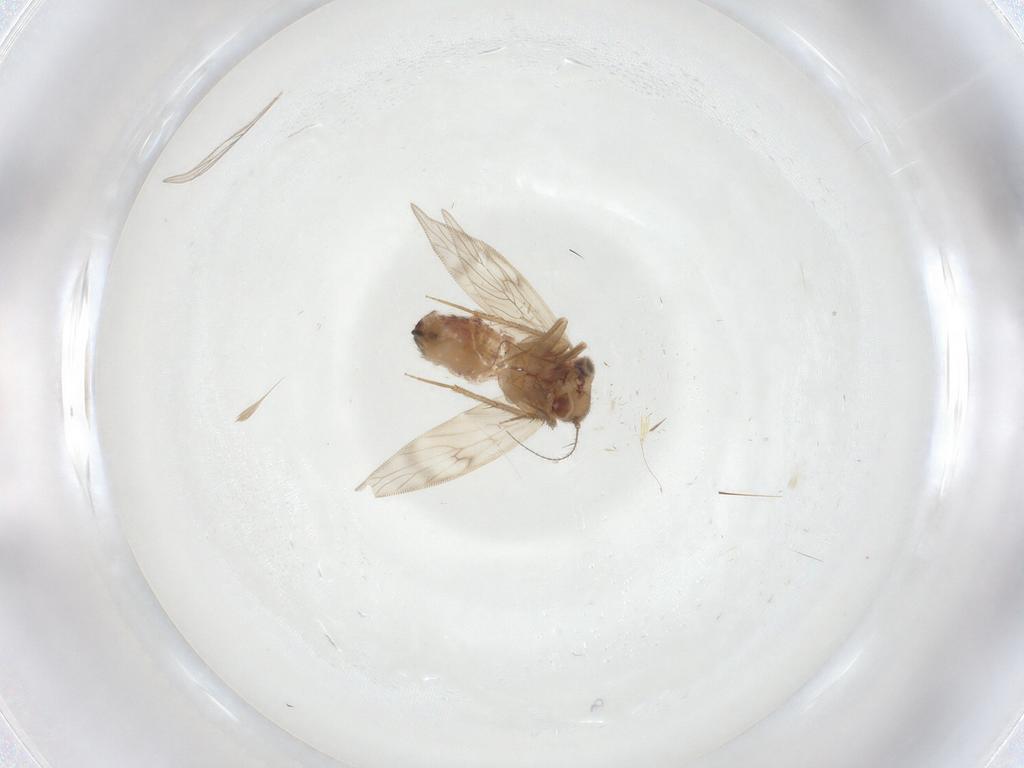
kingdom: Animalia
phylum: Arthropoda
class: Insecta
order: Psocodea
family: Lepidopsocidae
